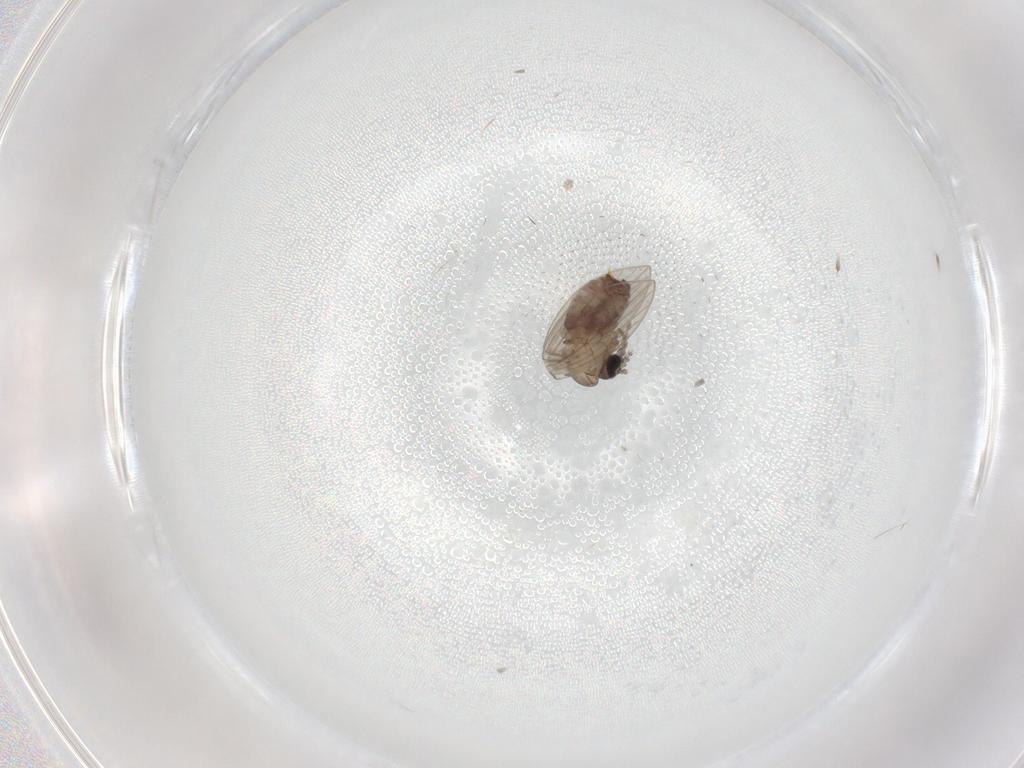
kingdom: Animalia
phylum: Arthropoda
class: Insecta
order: Diptera
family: Psychodidae
